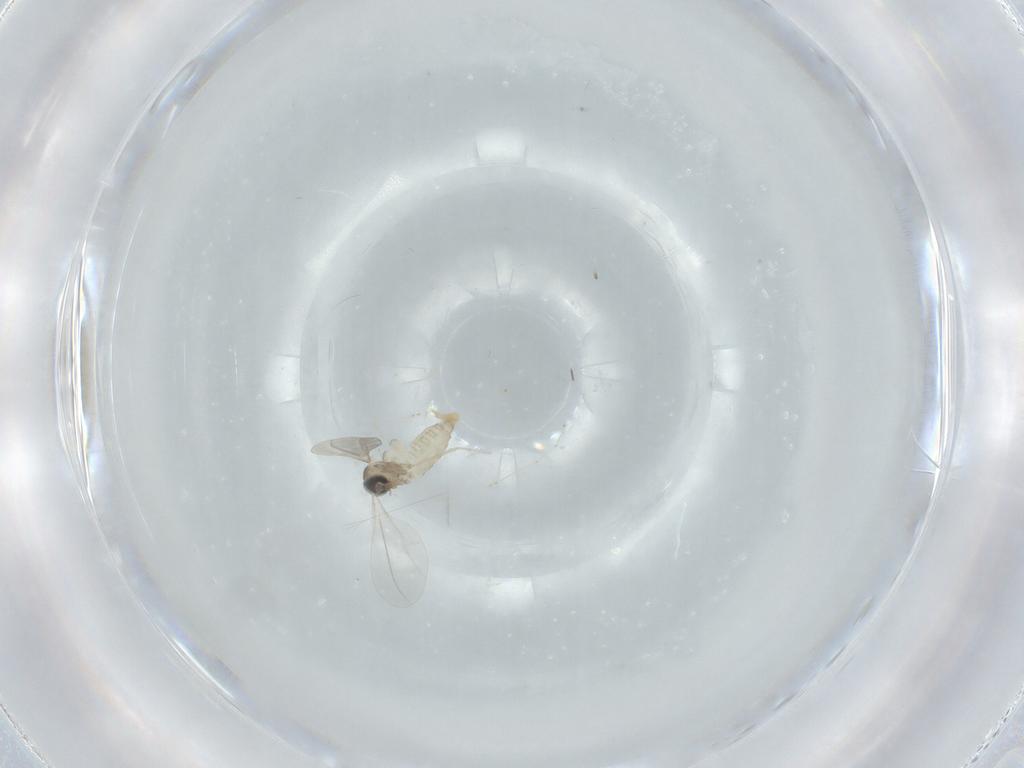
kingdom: Animalia
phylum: Arthropoda
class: Insecta
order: Diptera
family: Cecidomyiidae
